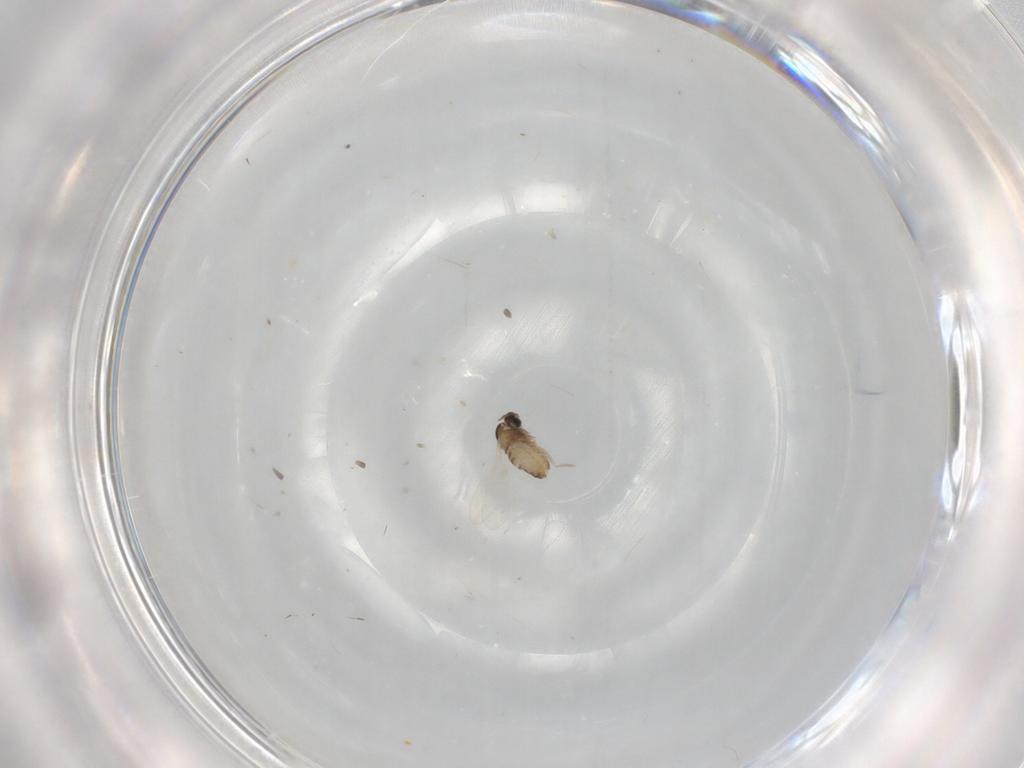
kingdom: Animalia
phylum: Arthropoda
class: Insecta
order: Diptera
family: Cecidomyiidae
